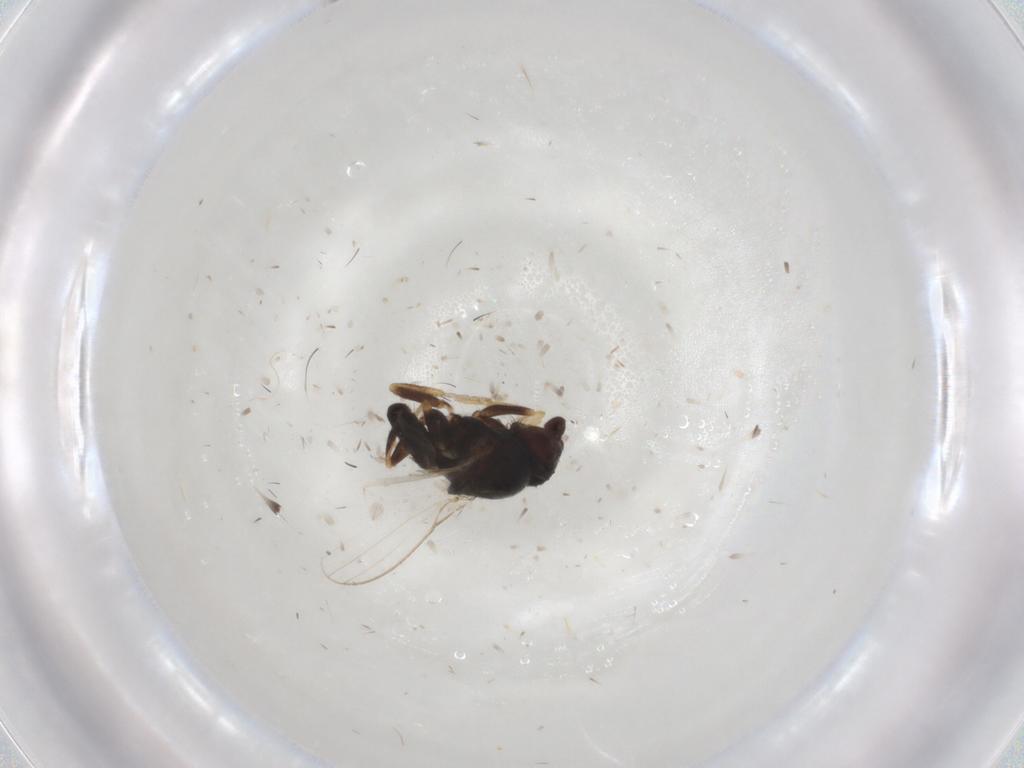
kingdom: Animalia
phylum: Arthropoda
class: Insecta
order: Diptera
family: Milichiidae
